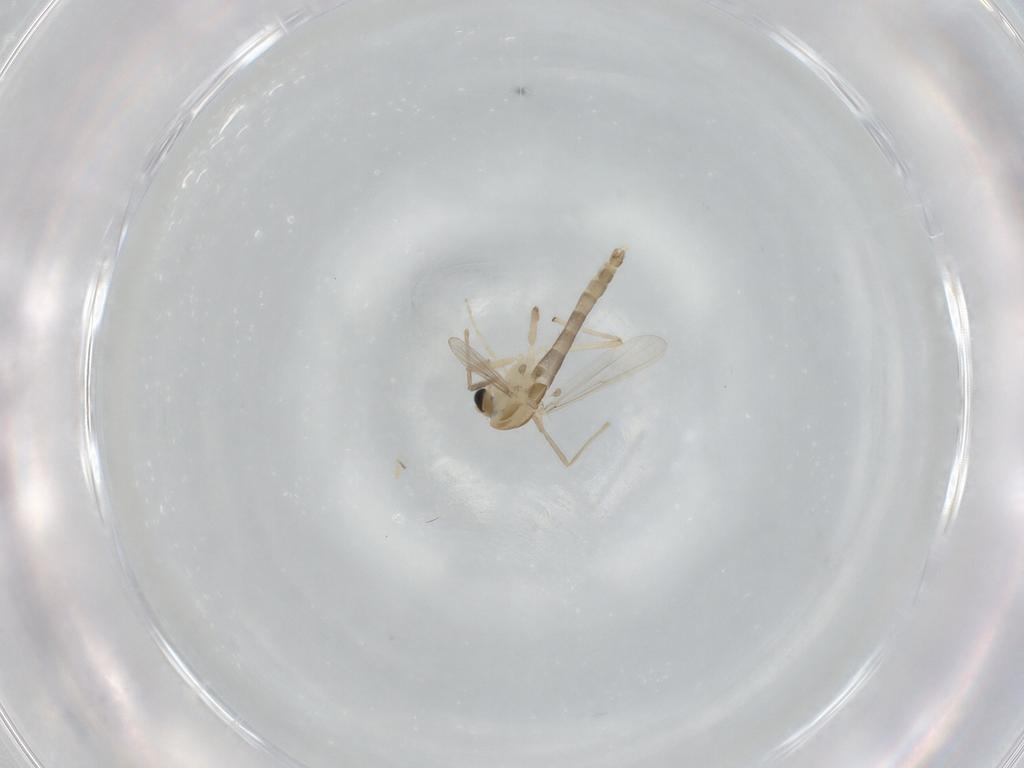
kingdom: Animalia
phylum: Arthropoda
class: Insecta
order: Diptera
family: Chironomidae
